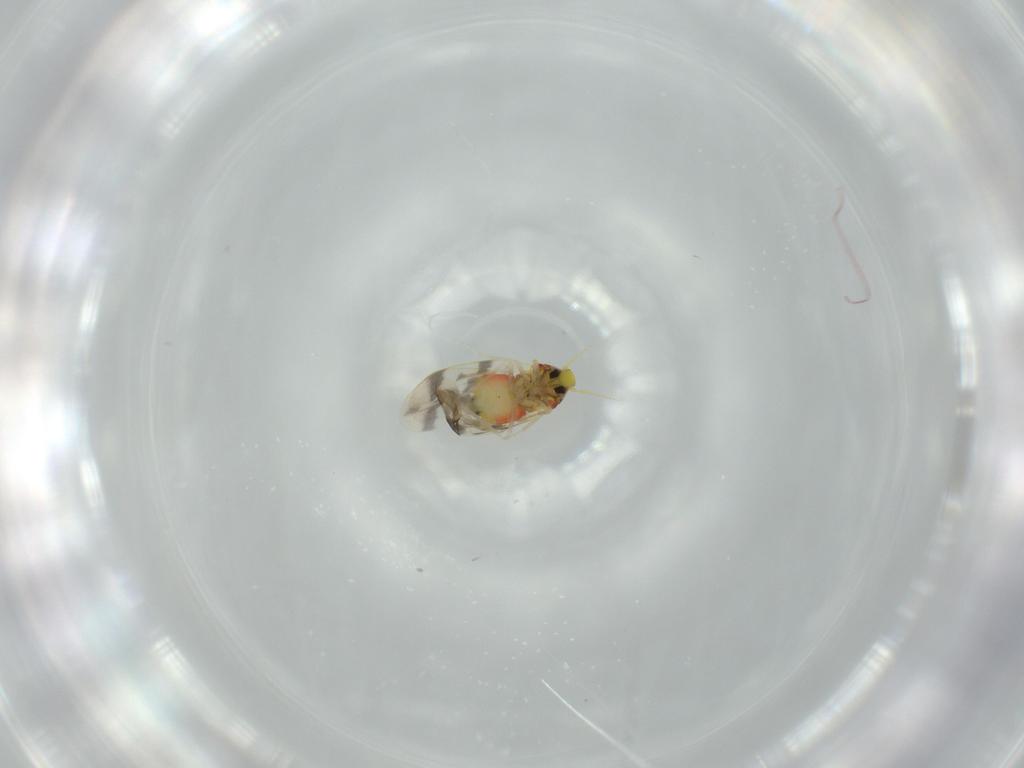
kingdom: Animalia
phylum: Arthropoda
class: Insecta
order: Hemiptera
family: Aleyrodidae
